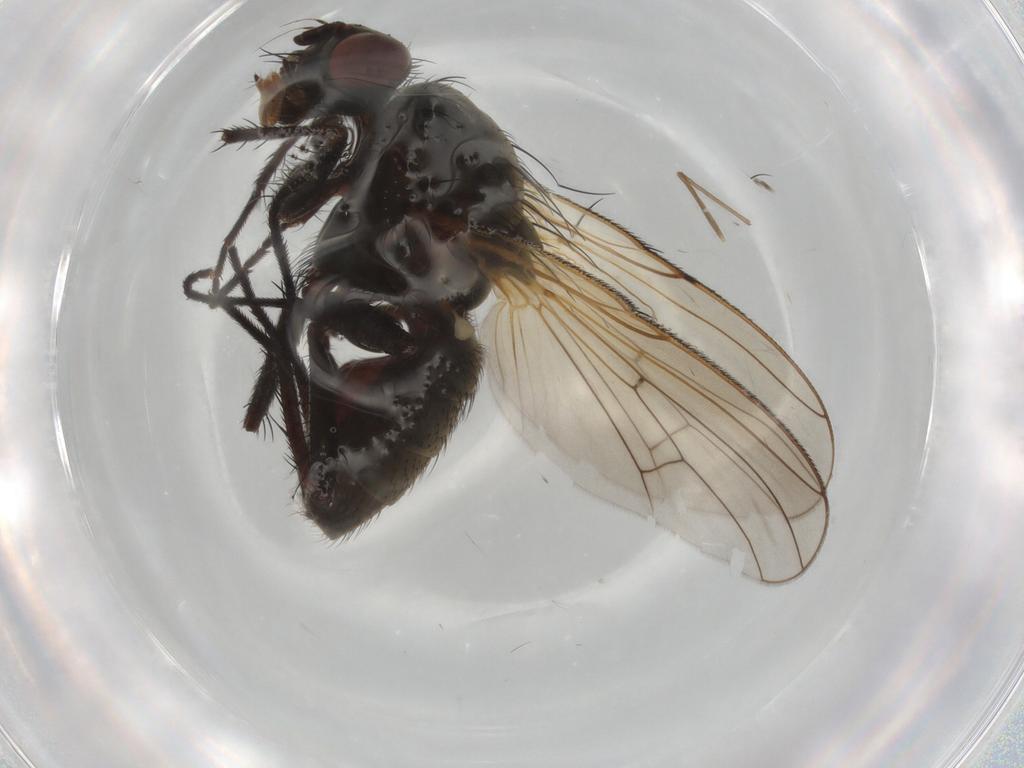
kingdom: Animalia
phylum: Arthropoda
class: Insecta
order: Diptera
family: Anthomyiidae
